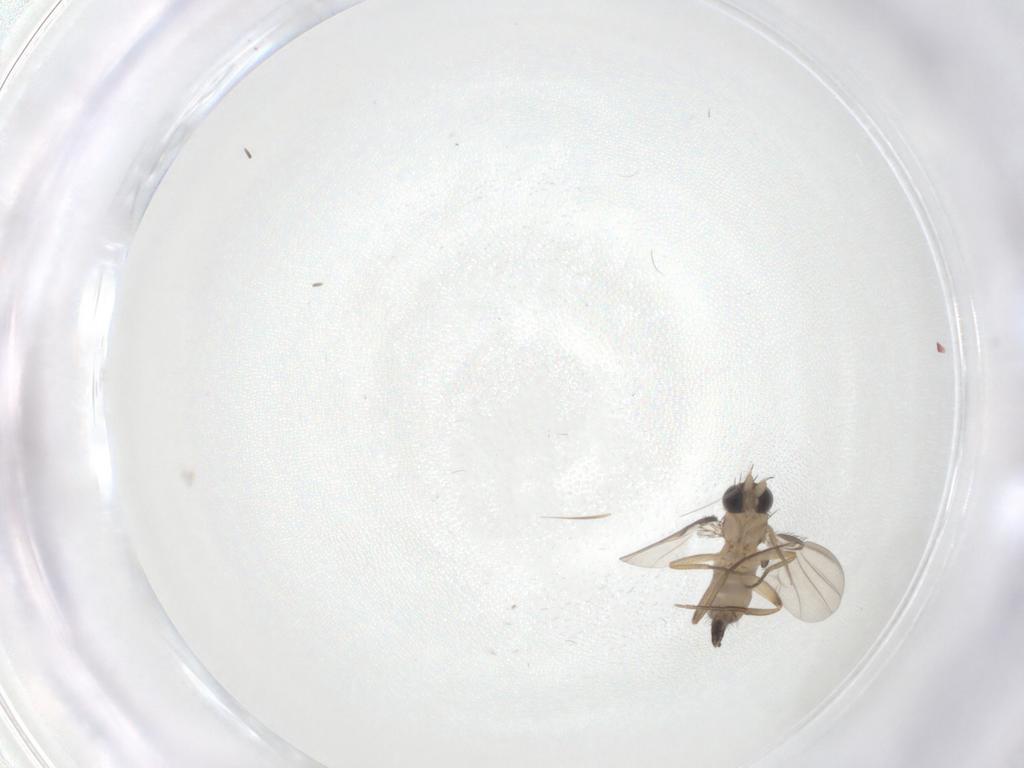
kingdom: Animalia
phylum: Arthropoda
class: Insecta
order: Diptera
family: Phoridae
